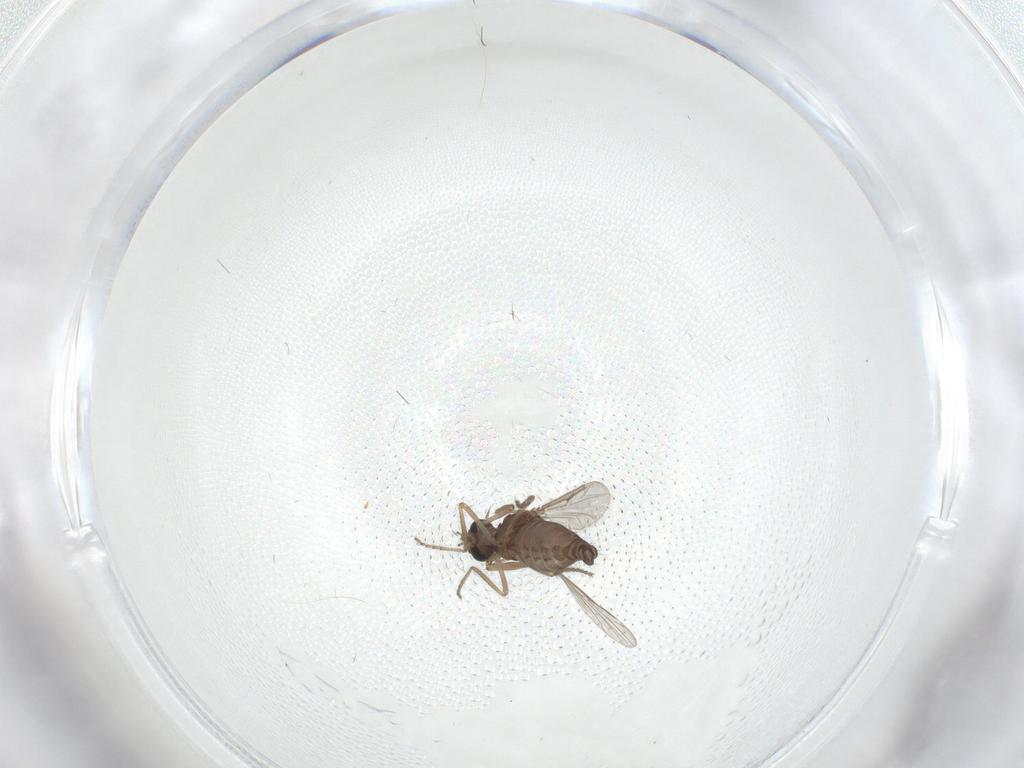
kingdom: Animalia
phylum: Arthropoda
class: Insecta
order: Diptera
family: Ceratopogonidae
